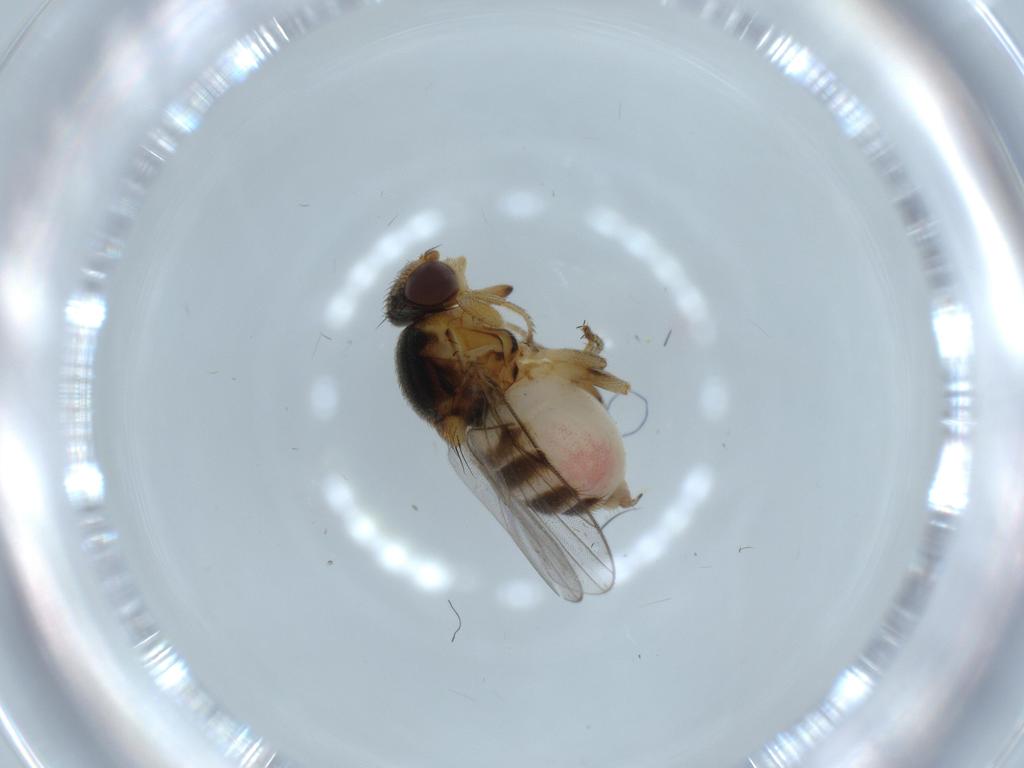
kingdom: Animalia
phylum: Arthropoda
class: Insecta
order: Diptera
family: Chloropidae
